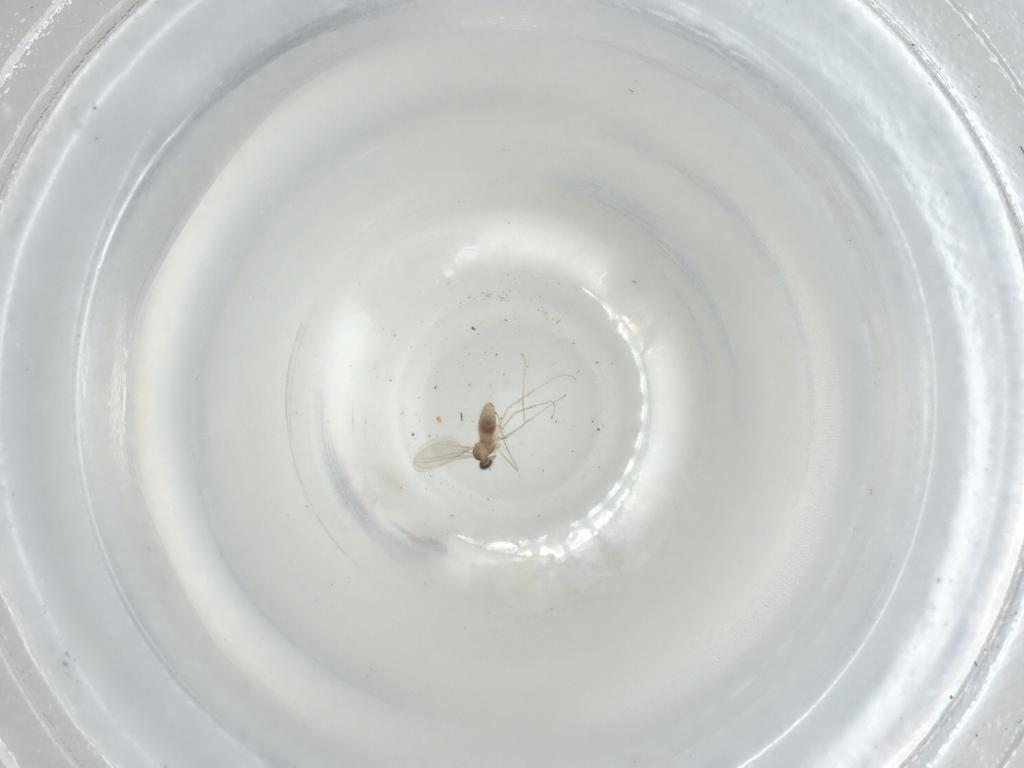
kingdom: Animalia
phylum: Arthropoda
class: Insecta
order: Diptera
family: Cecidomyiidae
